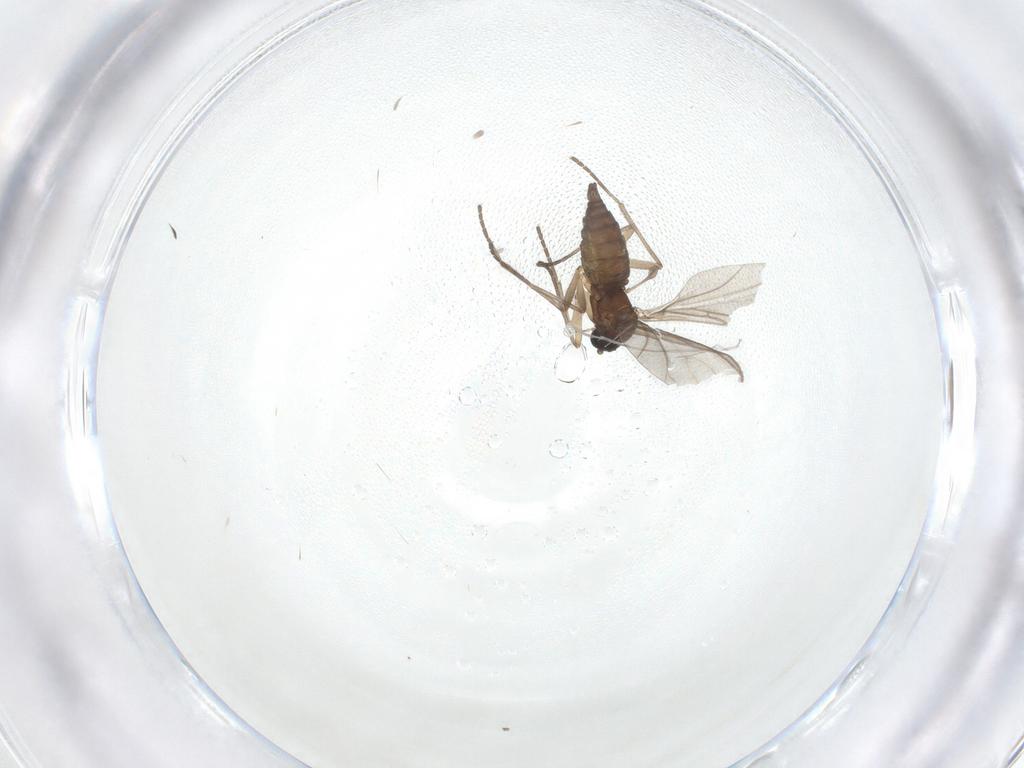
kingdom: Animalia
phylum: Arthropoda
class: Insecta
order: Diptera
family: Sciaridae
